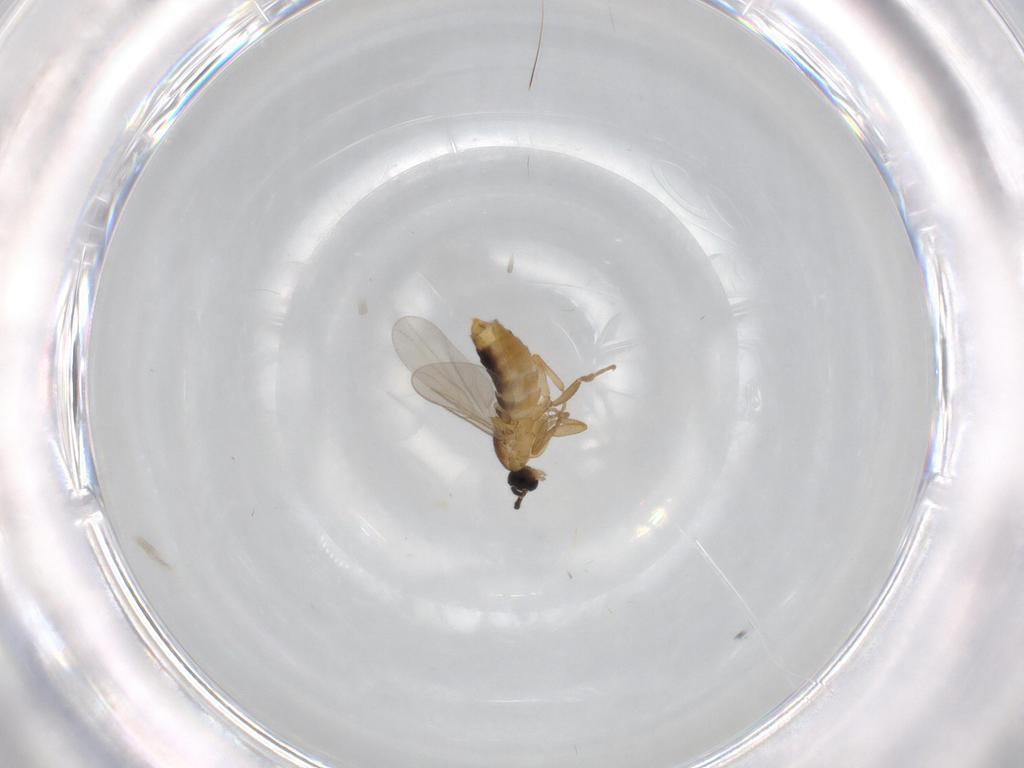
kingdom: Animalia
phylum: Arthropoda
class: Insecta
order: Diptera
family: Scatopsidae
